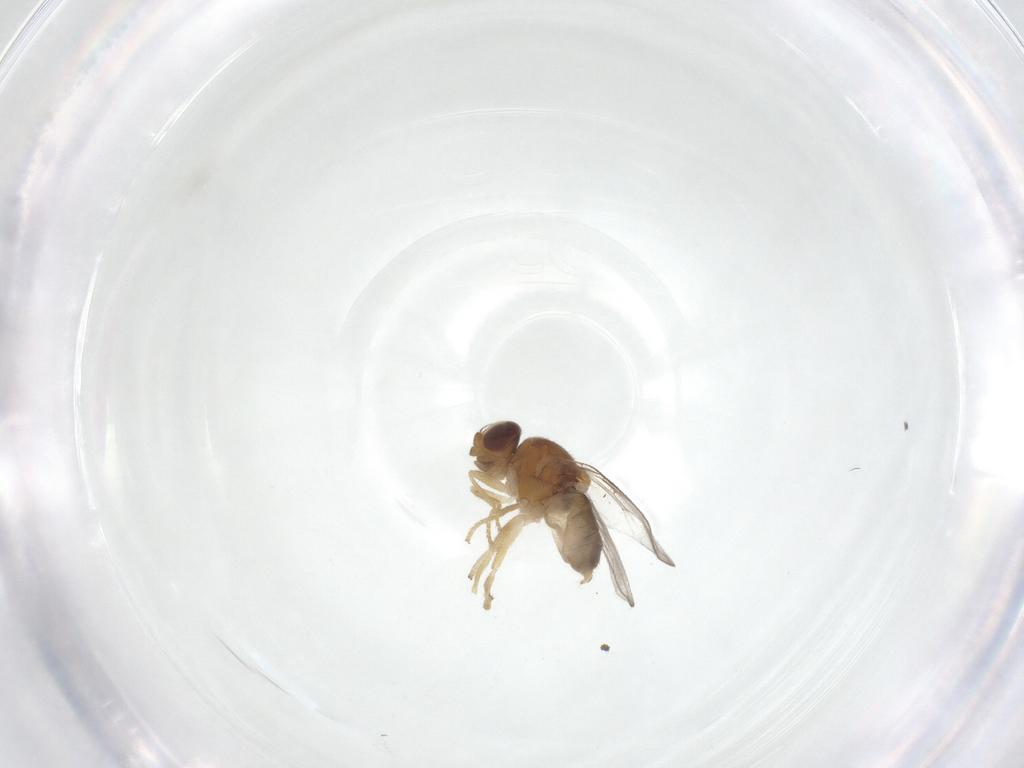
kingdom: Animalia
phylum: Arthropoda
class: Insecta
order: Diptera
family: Chloropidae
